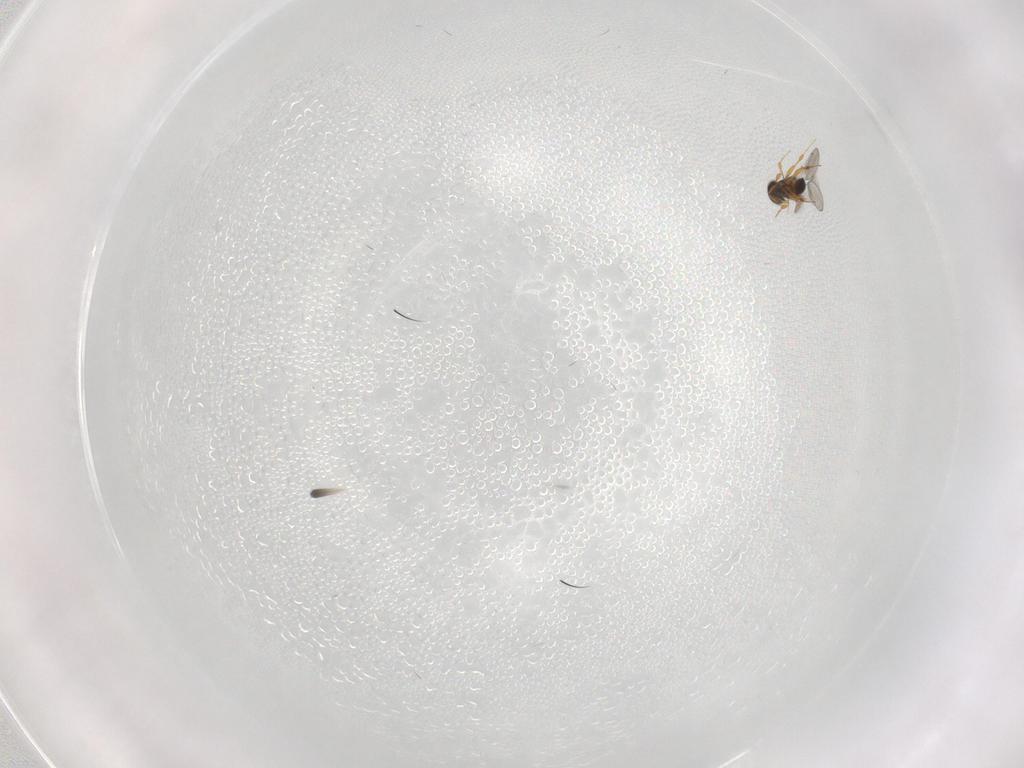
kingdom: Animalia
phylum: Arthropoda
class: Insecta
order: Hymenoptera
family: Platygastridae
